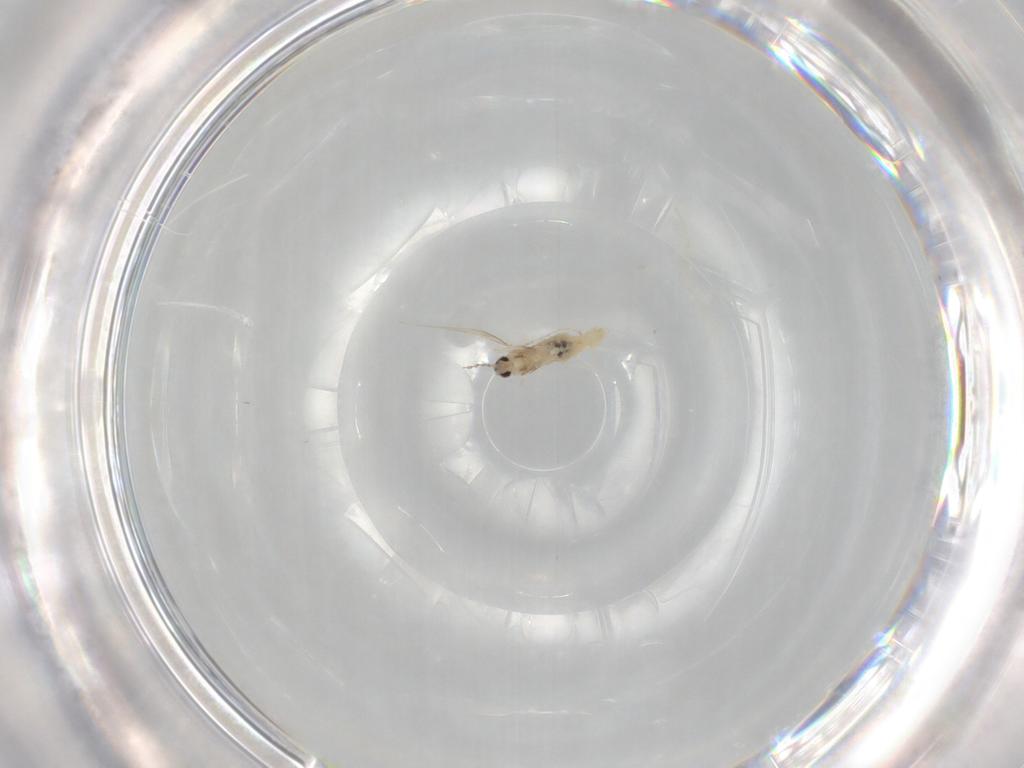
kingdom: Animalia
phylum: Arthropoda
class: Insecta
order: Diptera
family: Cecidomyiidae
